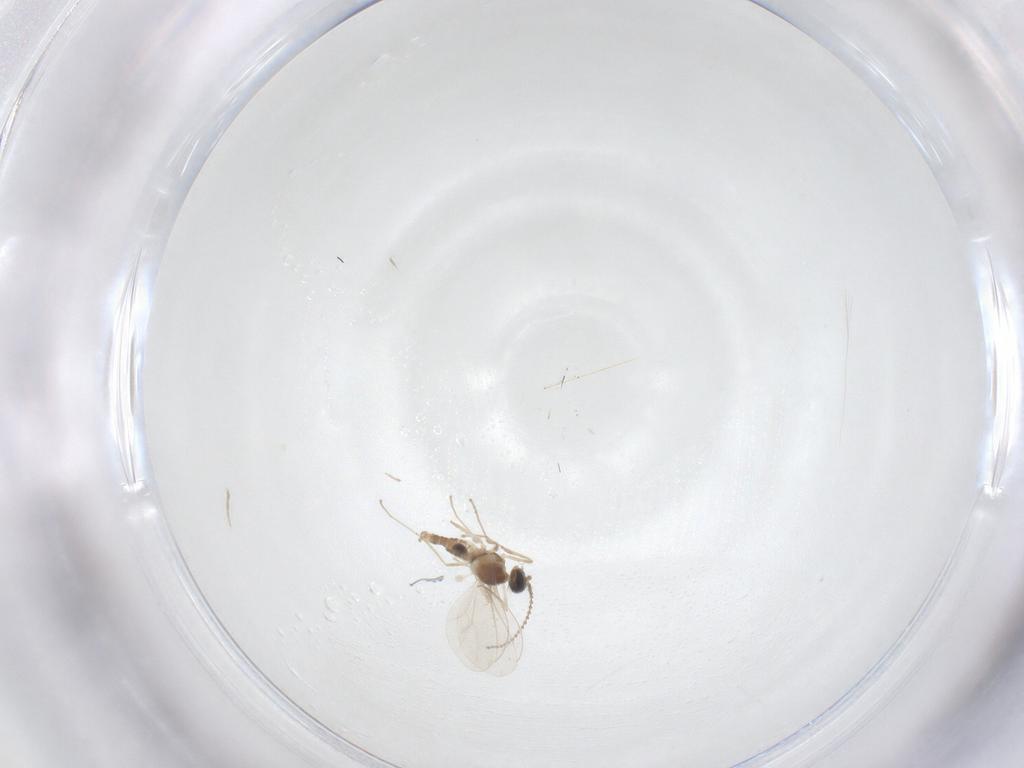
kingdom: Animalia
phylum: Arthropoda
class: Insecta
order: Diptera
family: Cecidomyiidae
